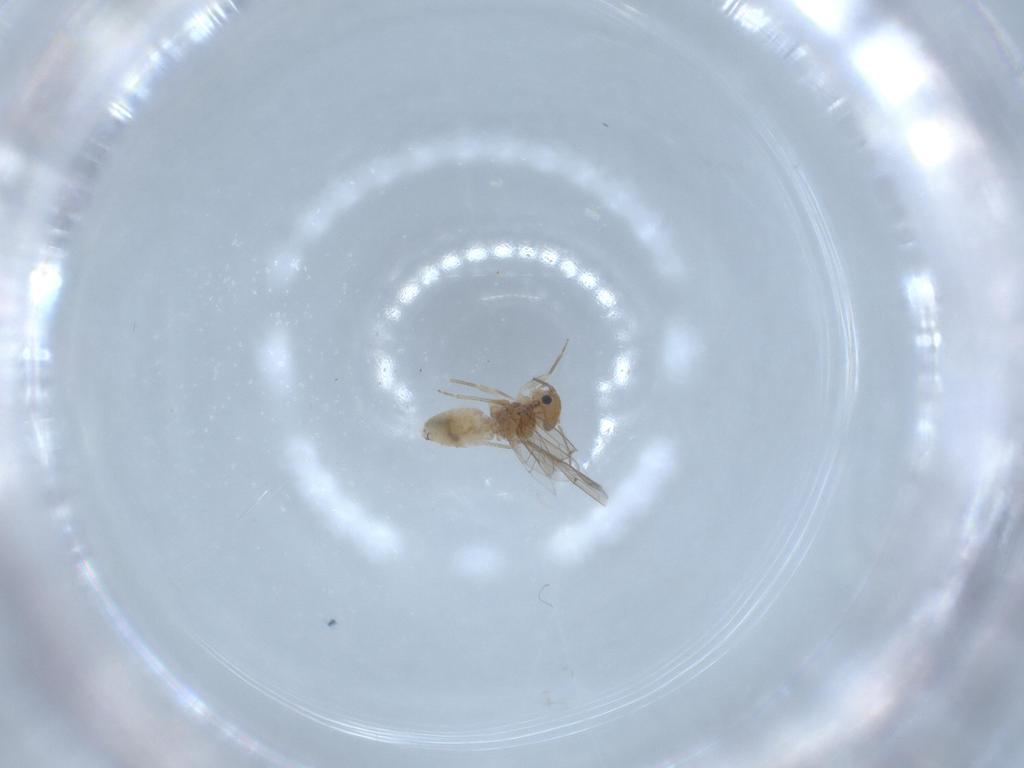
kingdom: Animalia
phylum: Arthropoda
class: Insecta
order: Psocodea
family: Ectopsocidae
